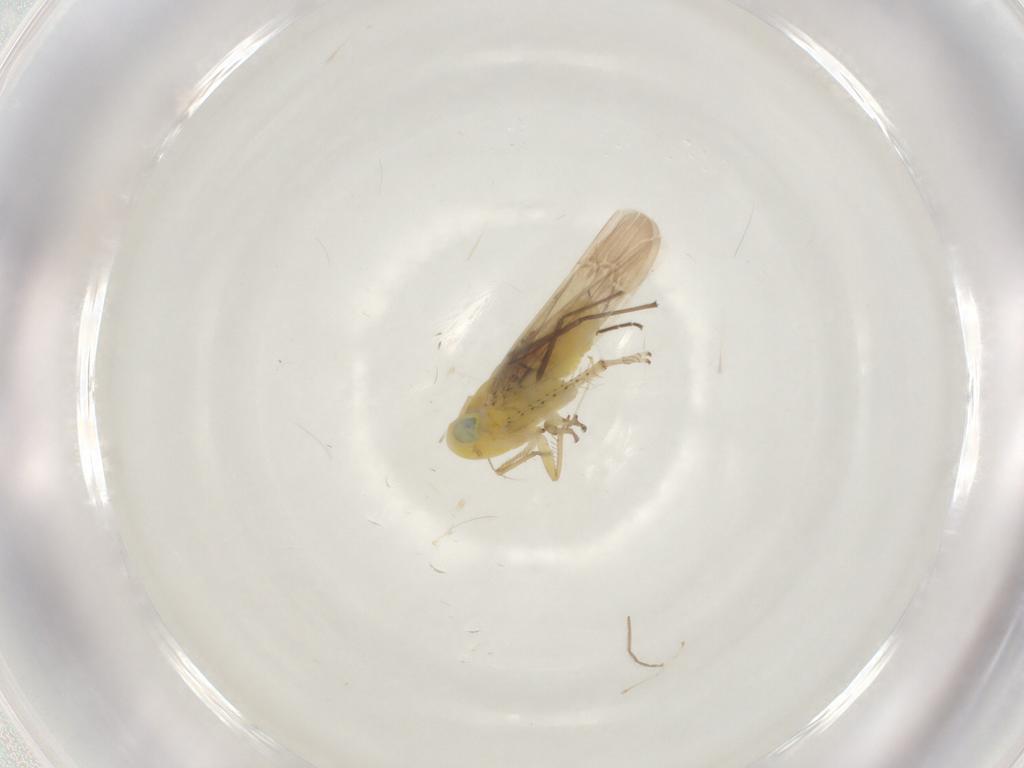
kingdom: Animalia
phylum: Arthropoda
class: Insecta
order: Hemiptera
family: Cicadellidae
